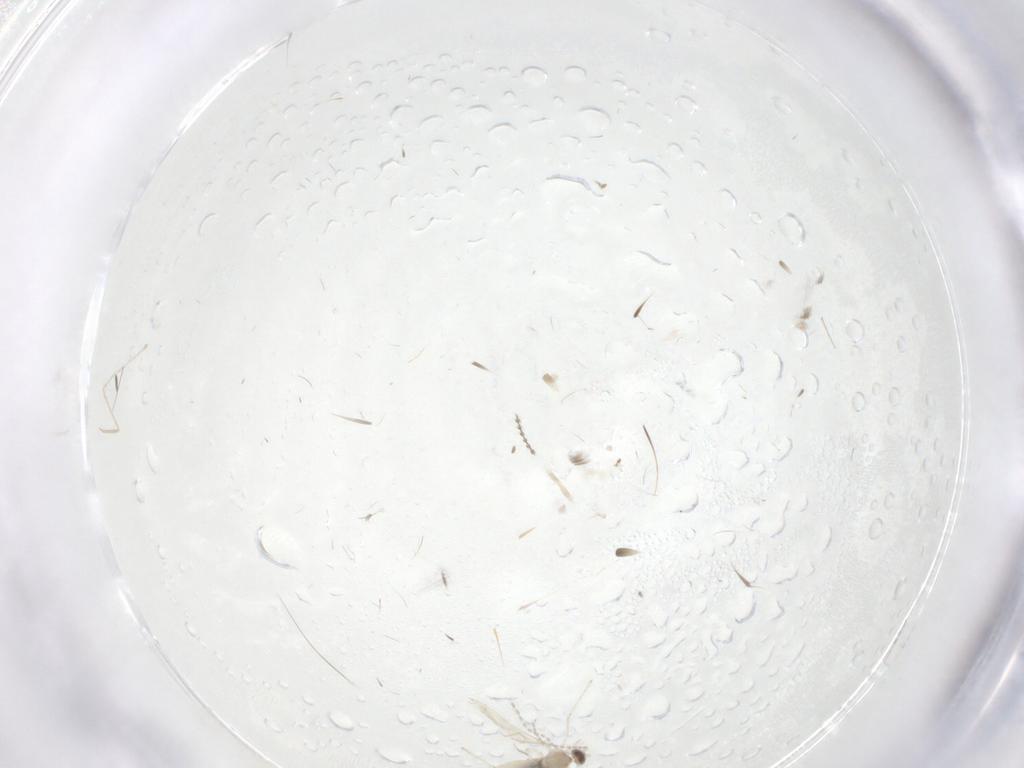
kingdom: Animalia
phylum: Arthropoda
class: Insecta
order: Diptera
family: Cecidomyiidae
